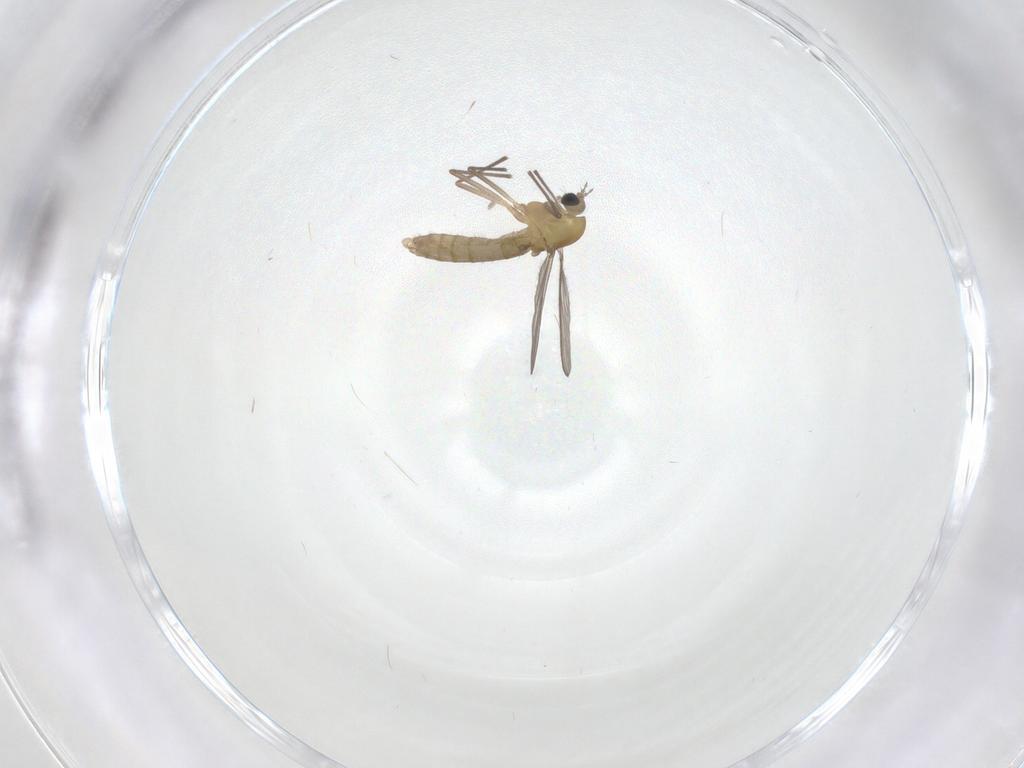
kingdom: Animalia
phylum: Arthropoda
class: Insecta
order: Diptera
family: Chironomidae
